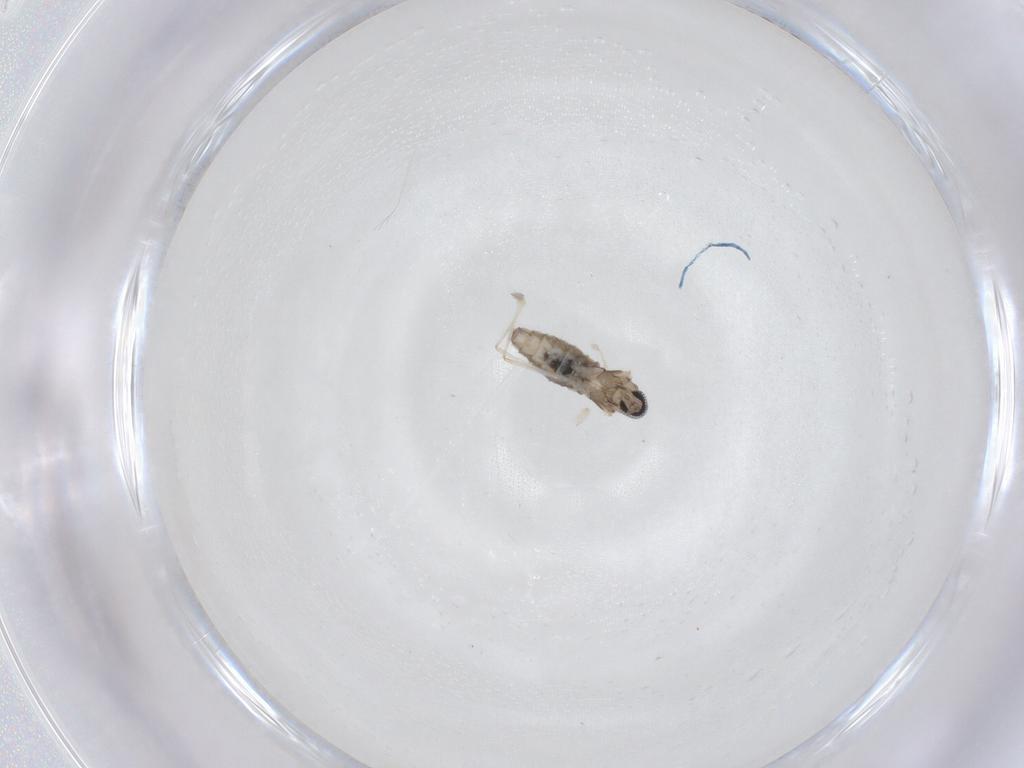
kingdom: Animalia
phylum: Arthropoda
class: Insecta
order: Diptera
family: Cecidomyiidae
